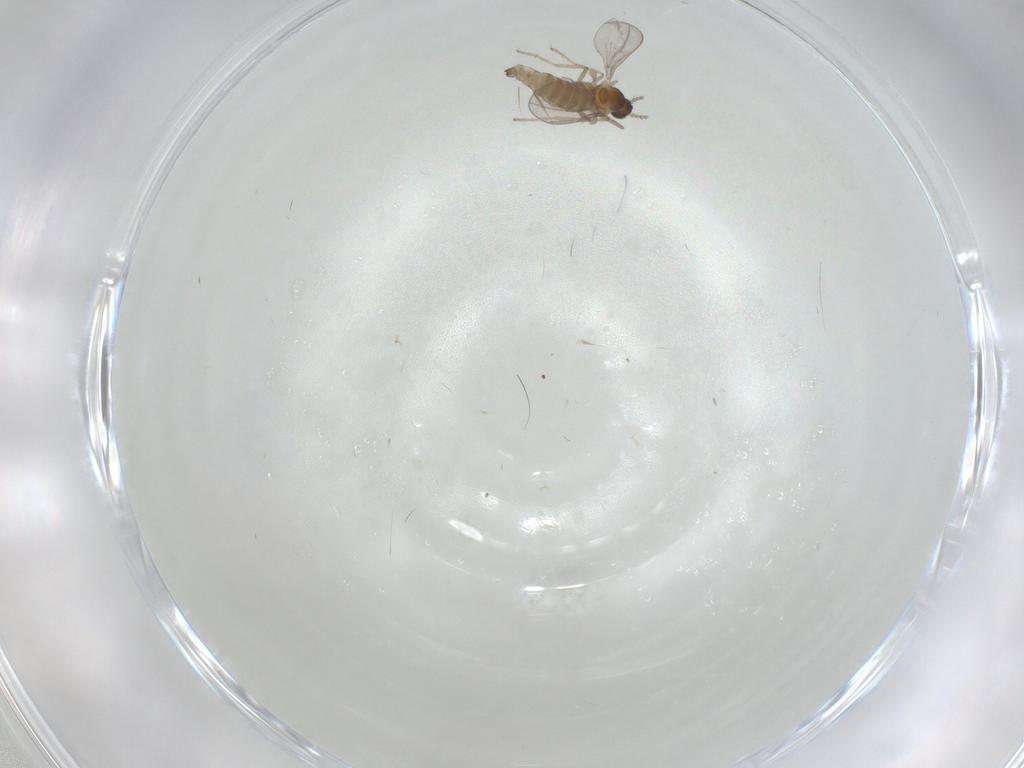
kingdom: Animalia
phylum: Arthropoda
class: Insecta
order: Diptera
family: Cecidomyiidae
